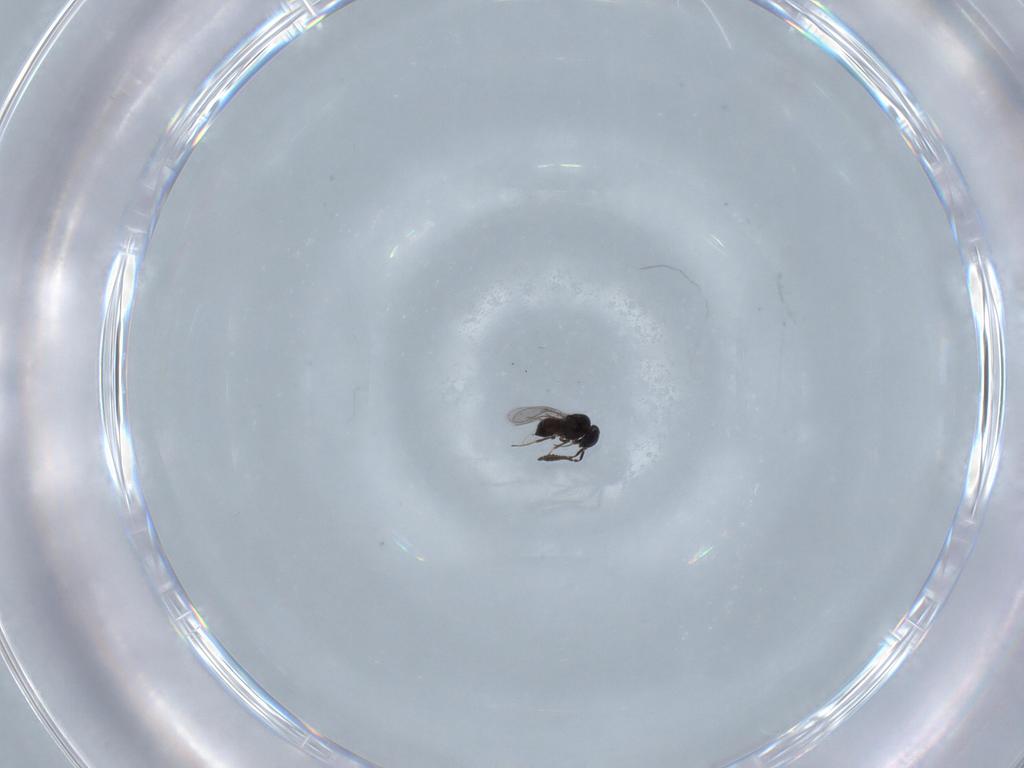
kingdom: Animalia
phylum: Arthropoda
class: Insecta
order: Hymenoptera
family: Scelionidae
